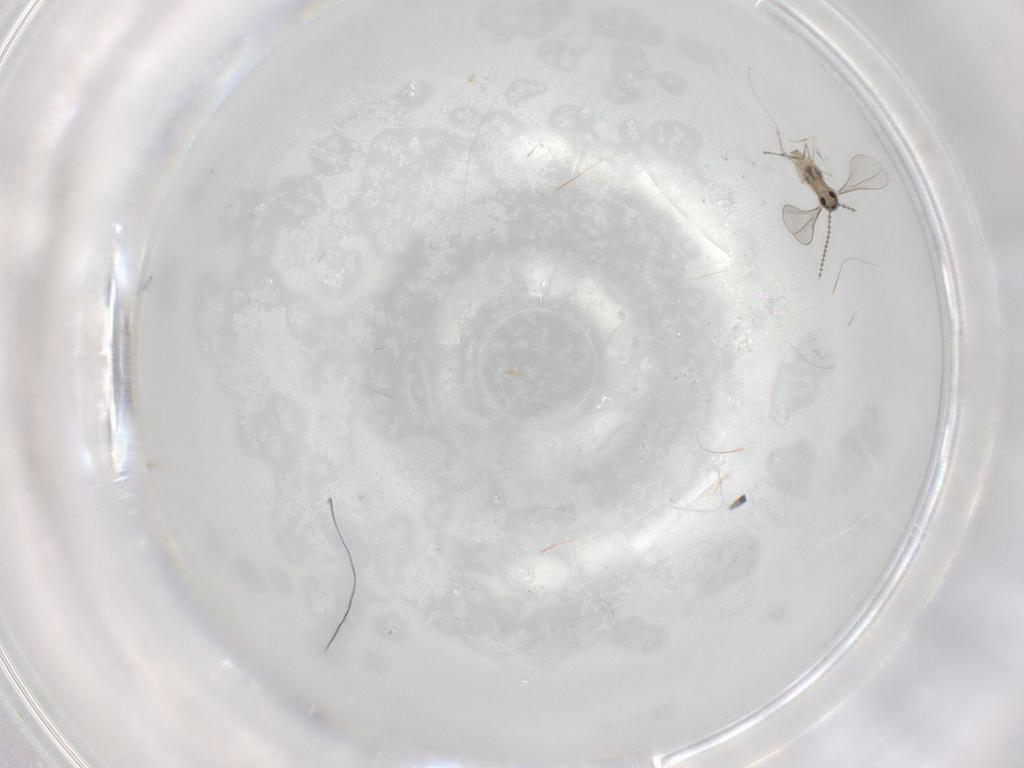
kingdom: Animalia
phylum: Arthropoda
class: Insecta
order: Diptera
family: Cecidomyiidae
